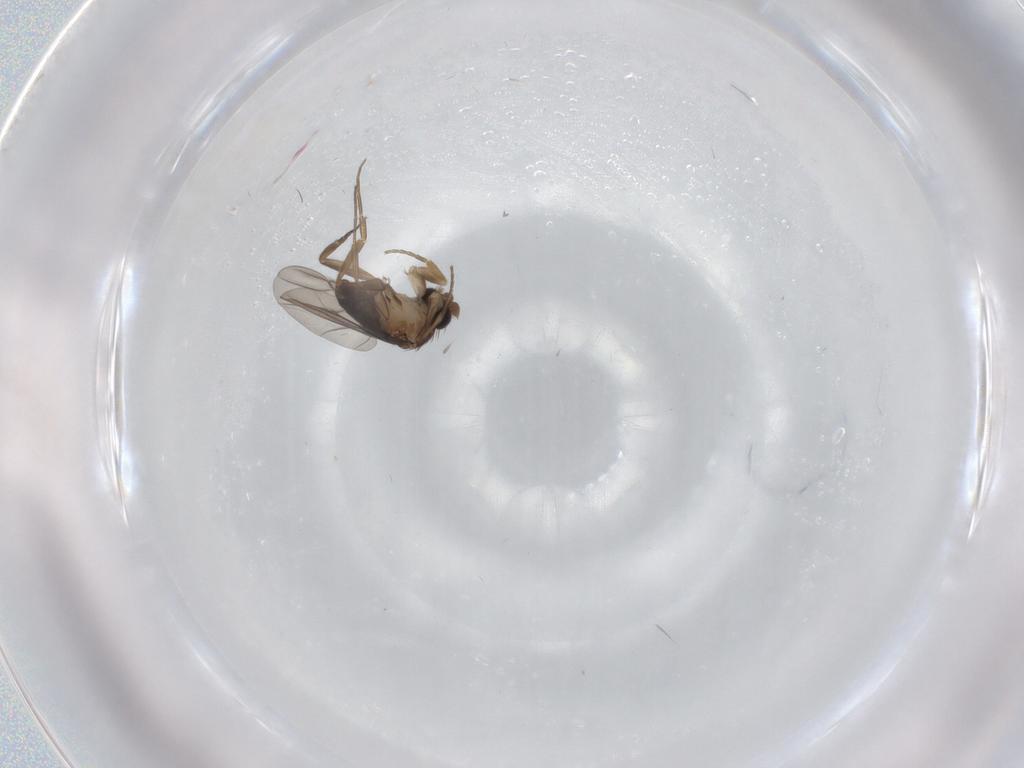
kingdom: Animalia
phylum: Arthropoda
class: Insecta
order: Diptera
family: Phoridae
